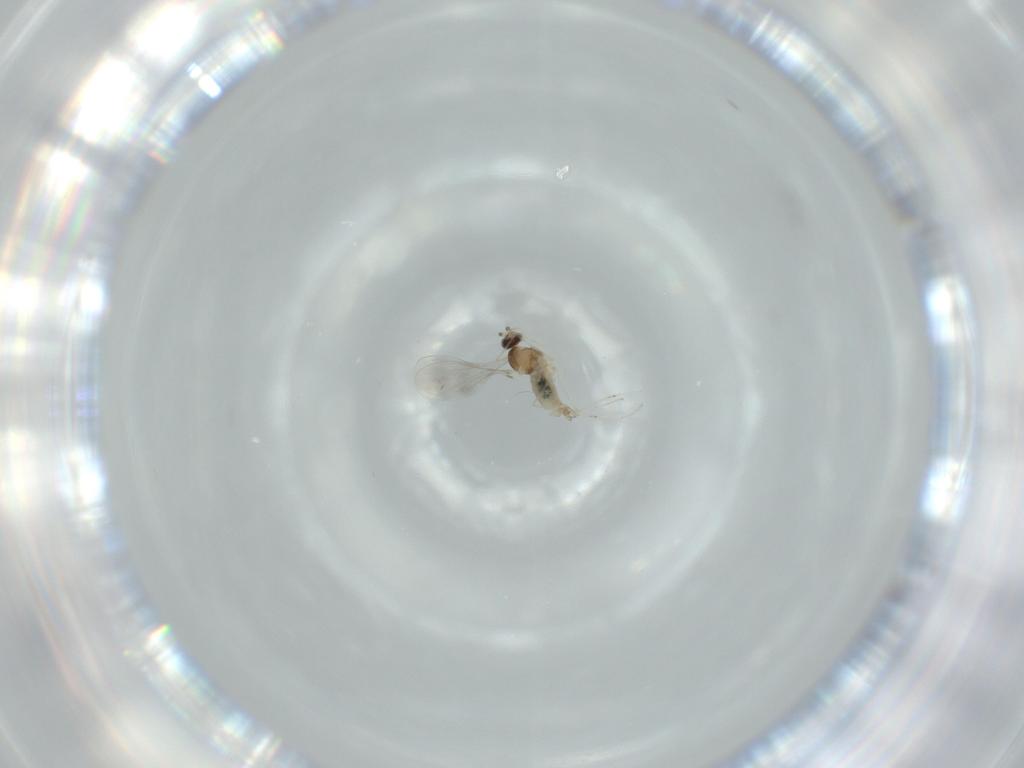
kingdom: Animalia
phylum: Arthropoda
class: Insecta
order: Diptera
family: Cecidomyiidae
